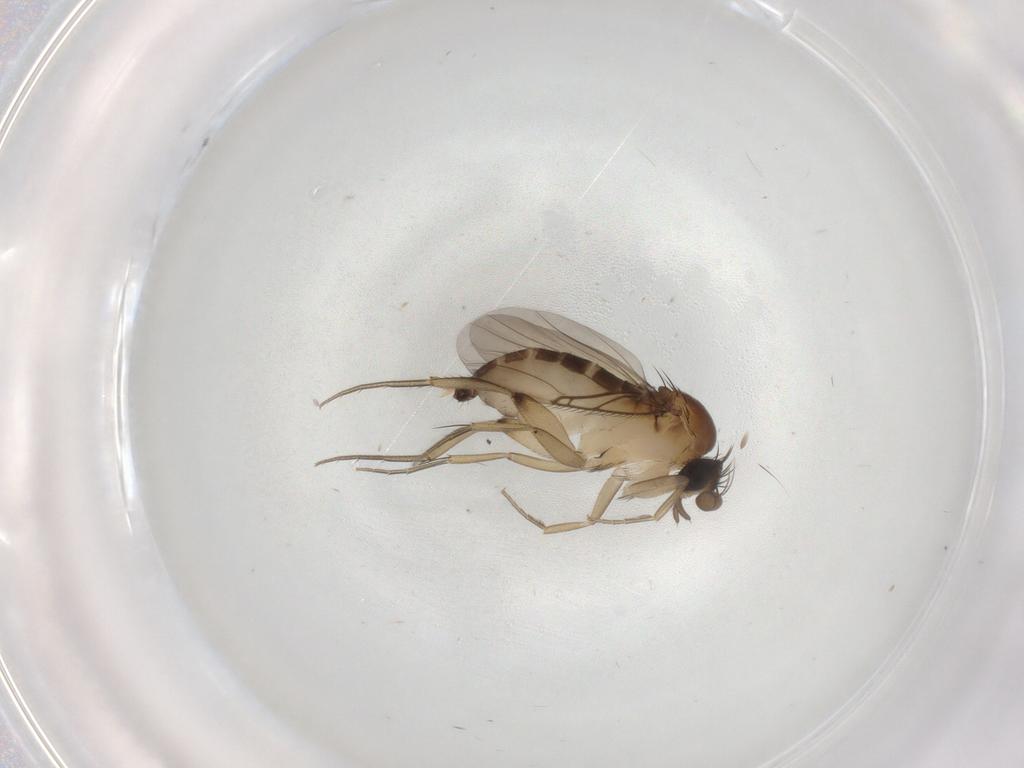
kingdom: Animalia
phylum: Arthropoda
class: Insecta
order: Diptera
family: Phoridae
